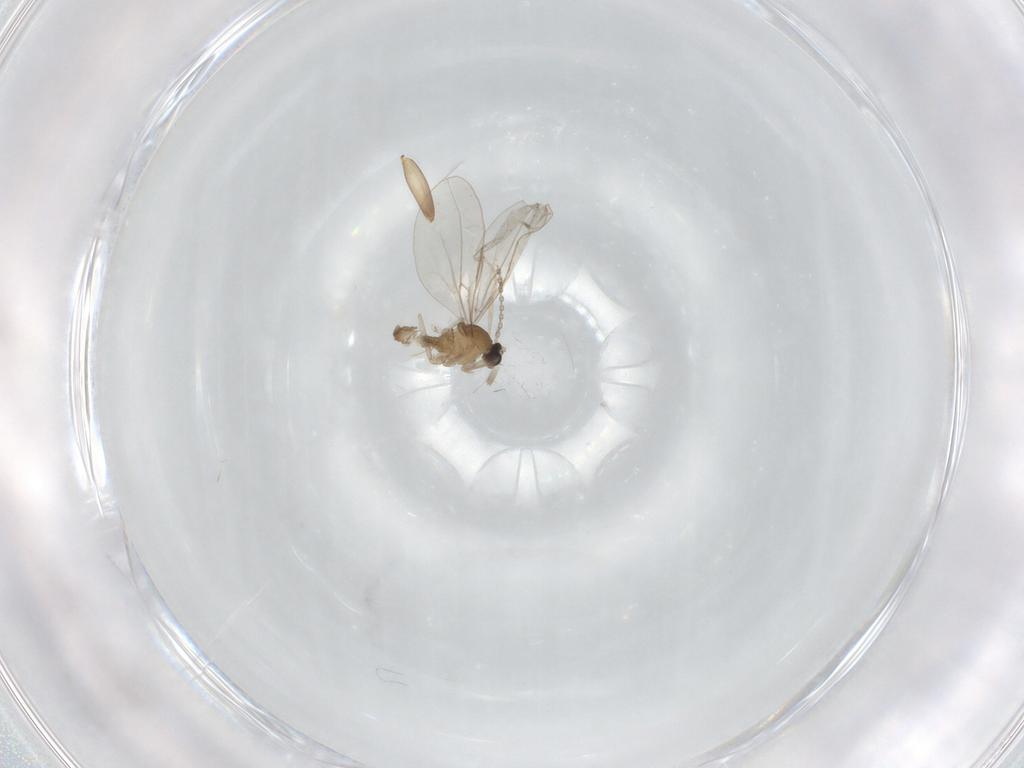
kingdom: Animalia
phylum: Arthropoda
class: Insecta
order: Diptera
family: Cecidomyiidae
